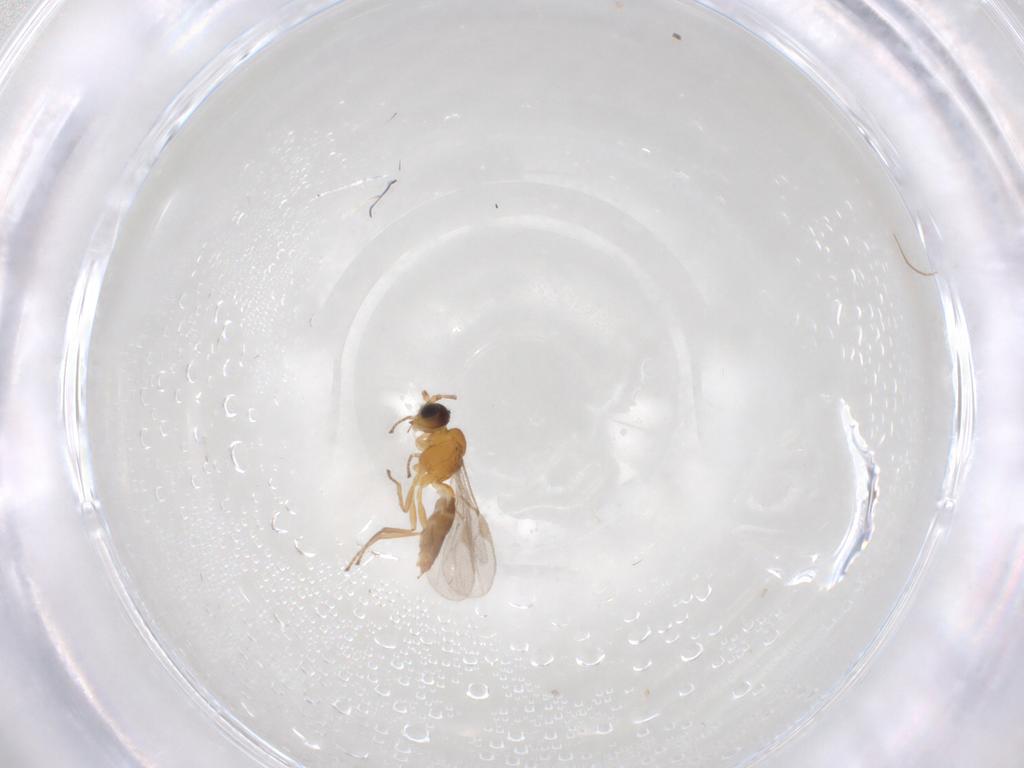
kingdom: Animalia
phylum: Arthropoda
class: Insecta
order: Hymenoptera
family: Braconidae
